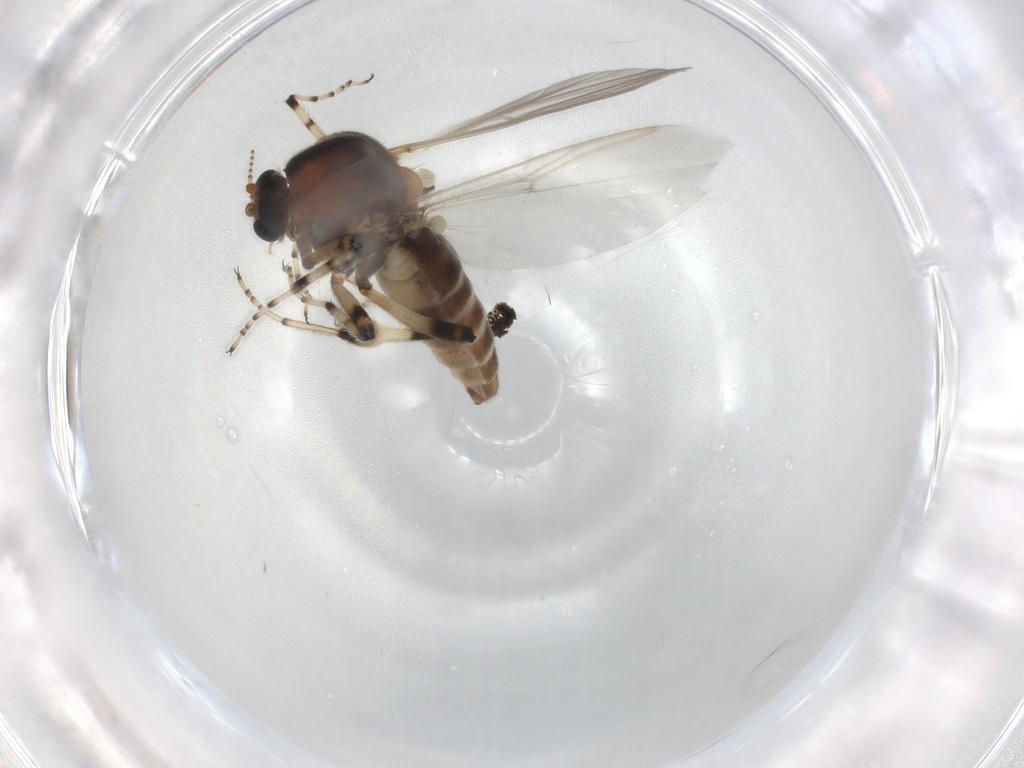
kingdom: Animalia
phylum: Arthropoda
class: Insecta
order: Diptera
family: Ceratopogonidae
